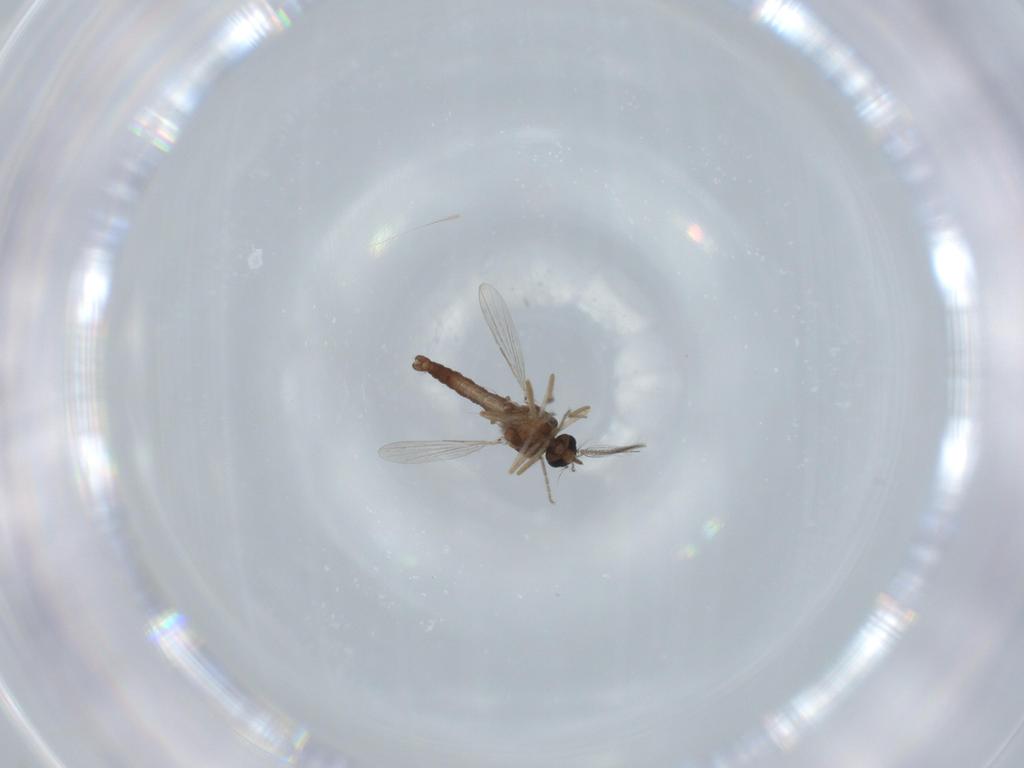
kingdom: Animalia
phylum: Arthropoda
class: Insecta
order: Diptera
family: Ceratopogonidae
